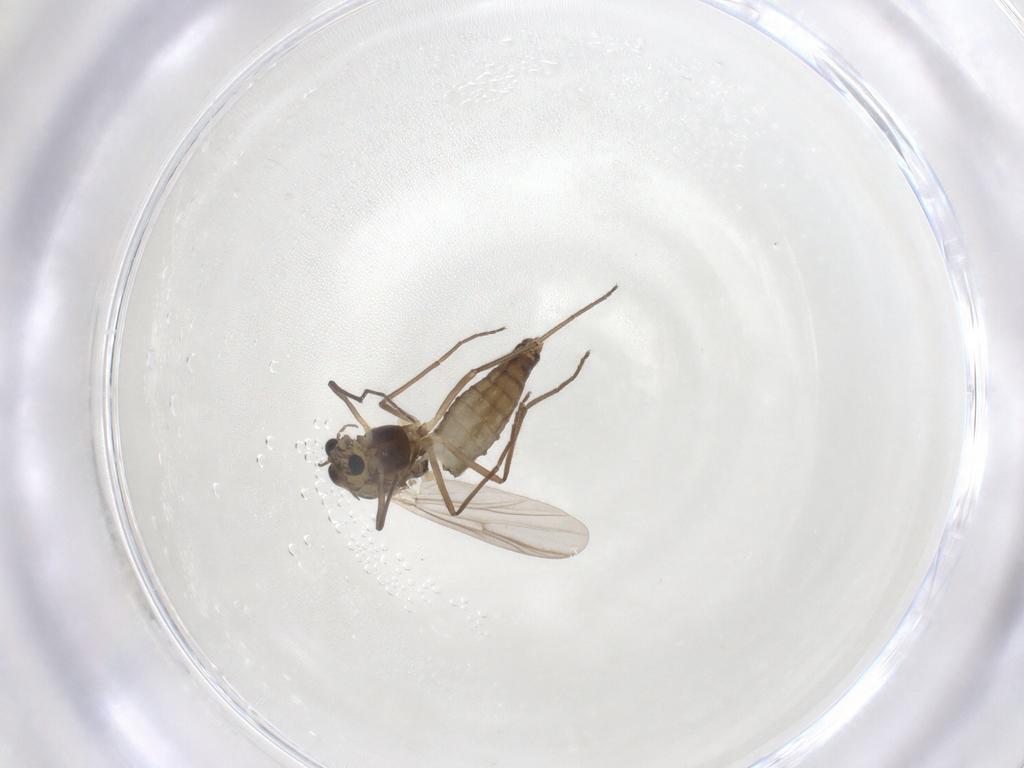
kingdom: Animalia
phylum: Arthropoda
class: Insecta
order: Diptera
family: Chironomidae
